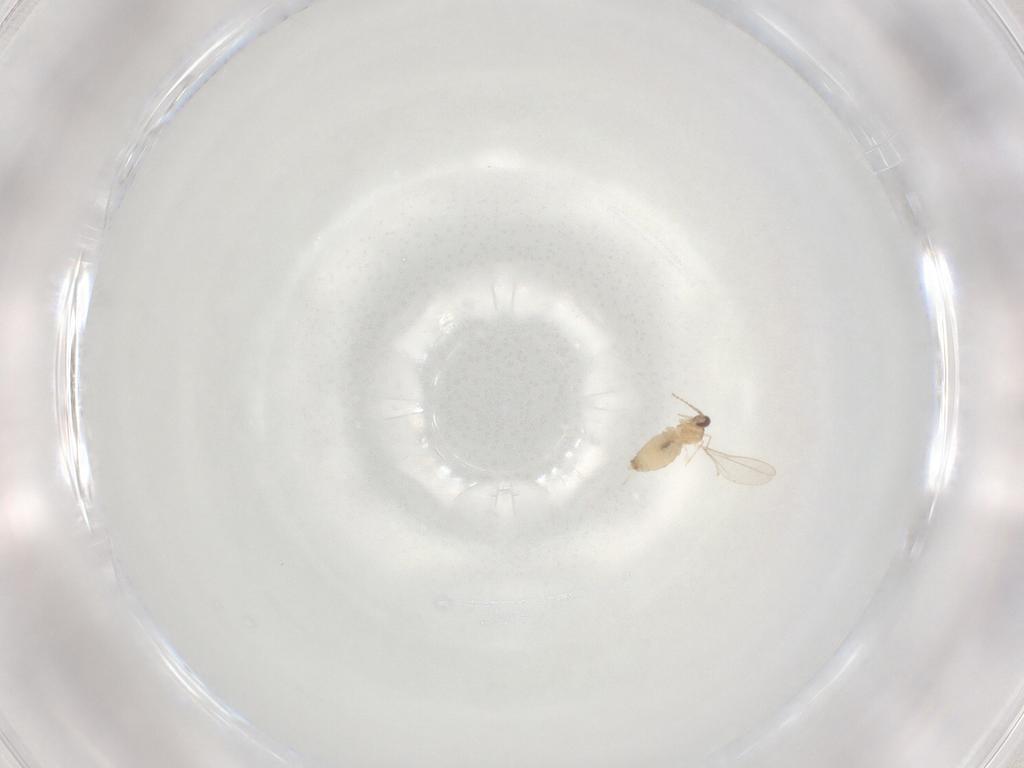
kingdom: Animalia
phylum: Arthropoda
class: Insecta
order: Diptera
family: Cecidomyiidae
